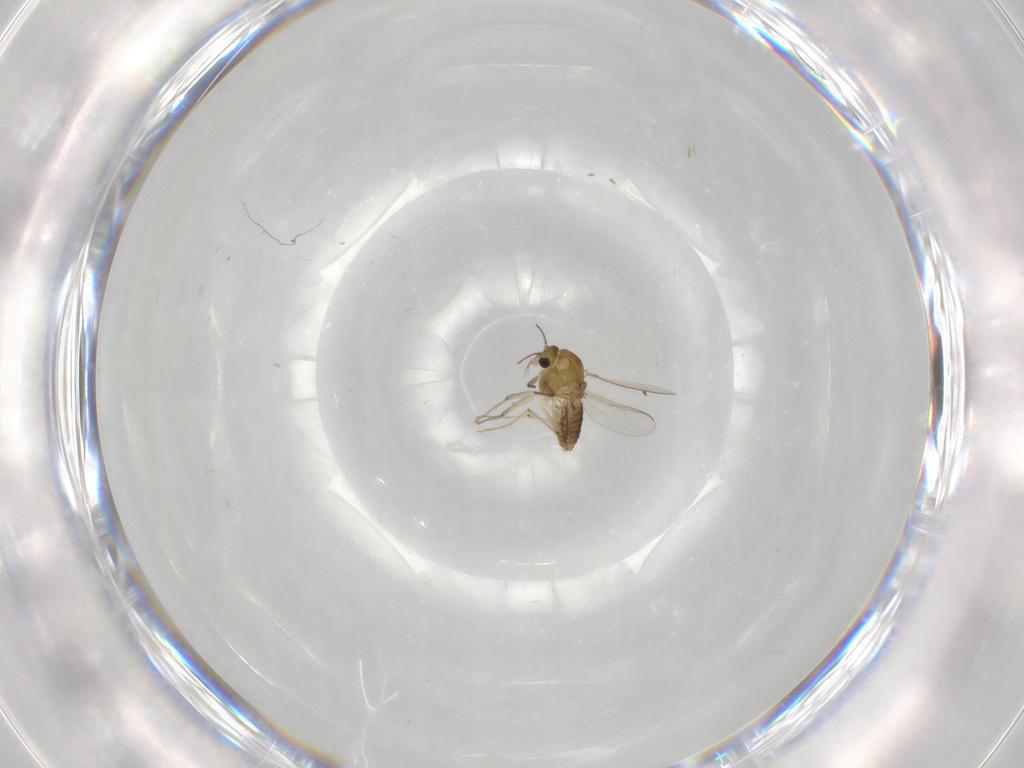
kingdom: Animalia
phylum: Arthropoda
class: Insecta
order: Diptera
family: Chironomidae
